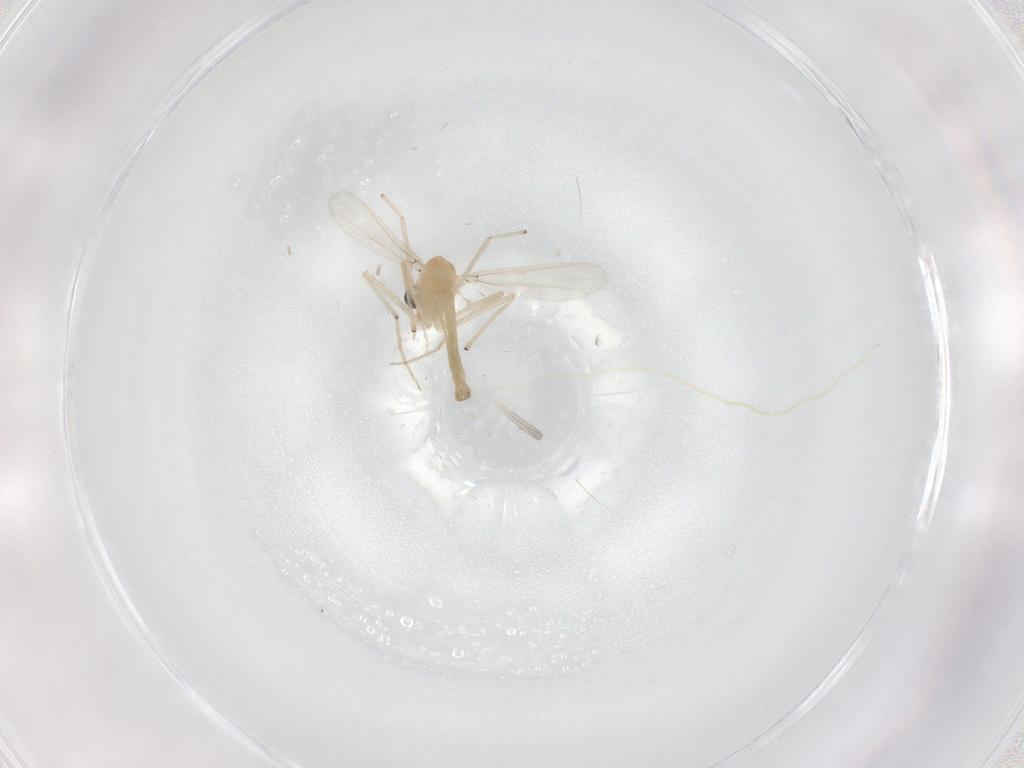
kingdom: Animalia
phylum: Arthropoda
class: Insecta
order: Diptera
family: Chironomidae
